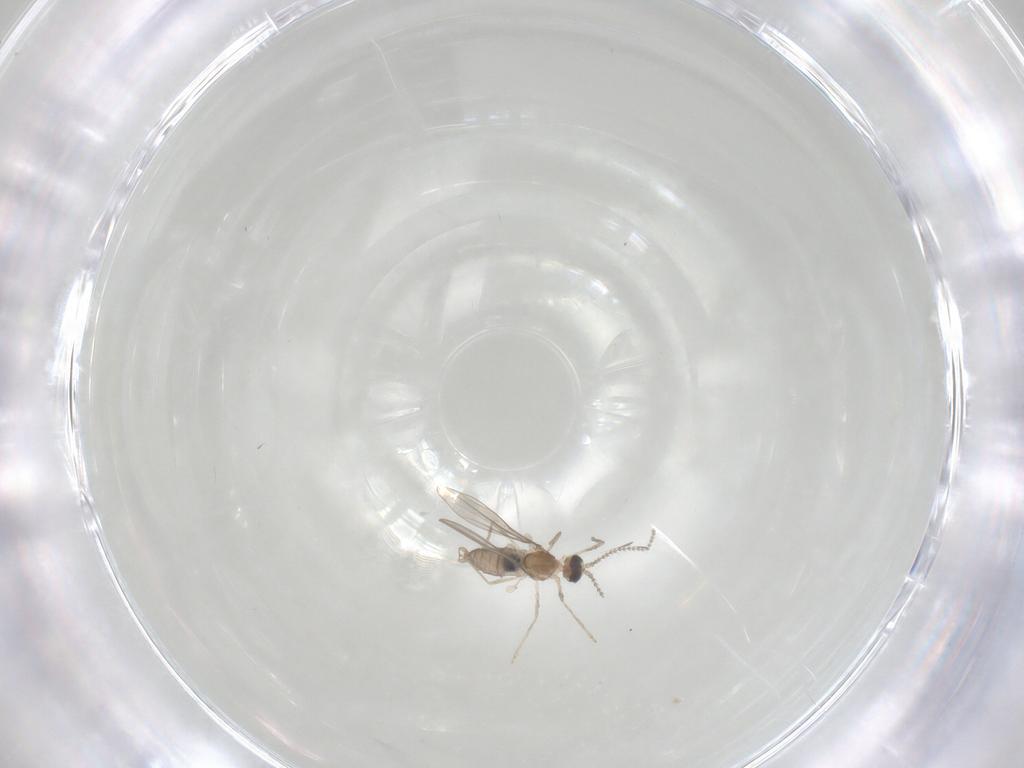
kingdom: Animalia
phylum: Arthropoda
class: Insecta
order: Diptera
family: Cecidomyiidae
